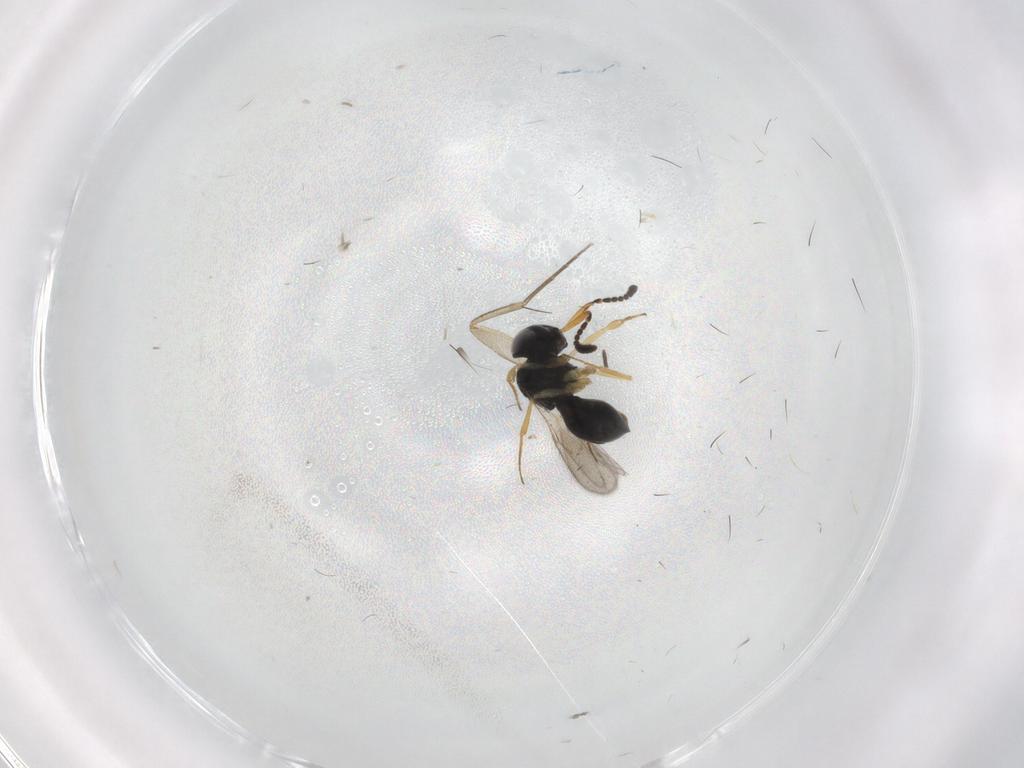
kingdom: Animalia
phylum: Arthropoda
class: Insecta
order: Hymenoptera
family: Scelionidae
